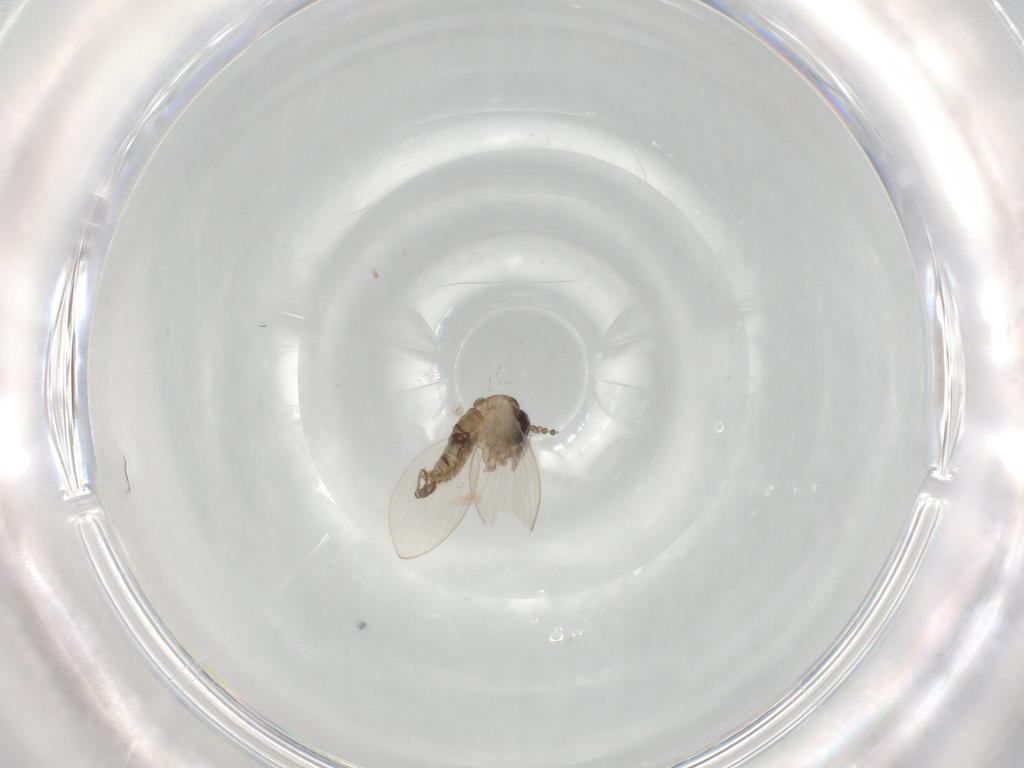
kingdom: Animalia
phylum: Arthropoda
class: Insecta
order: Diptera
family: Psychodidae
